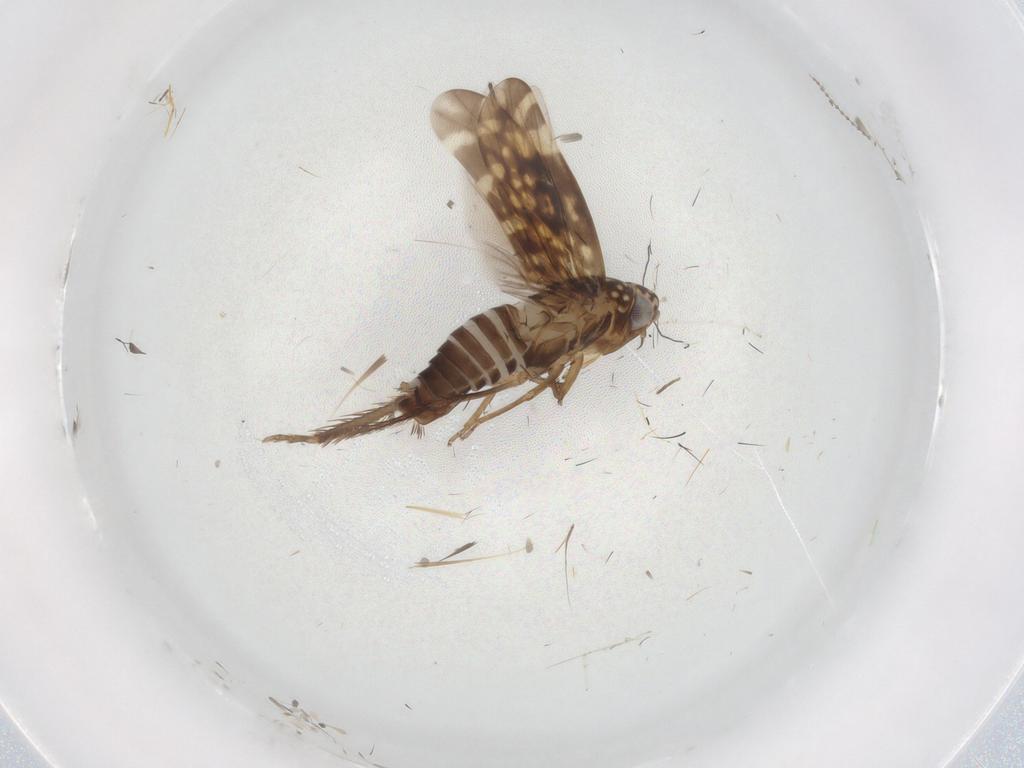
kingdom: Animalia
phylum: Arthropoda
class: Insecta
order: Hemiptera
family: Cicadellidae
